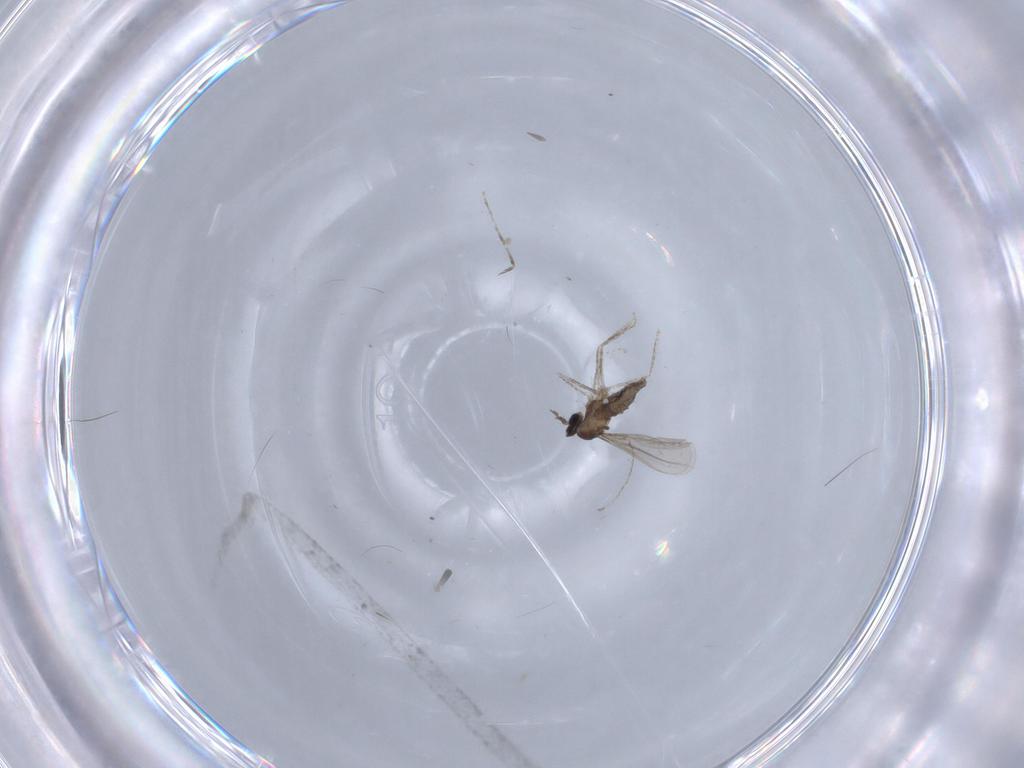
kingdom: Animalia
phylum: Arthropoda
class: Insecta
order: Diptera
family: Cecidomyiidae
